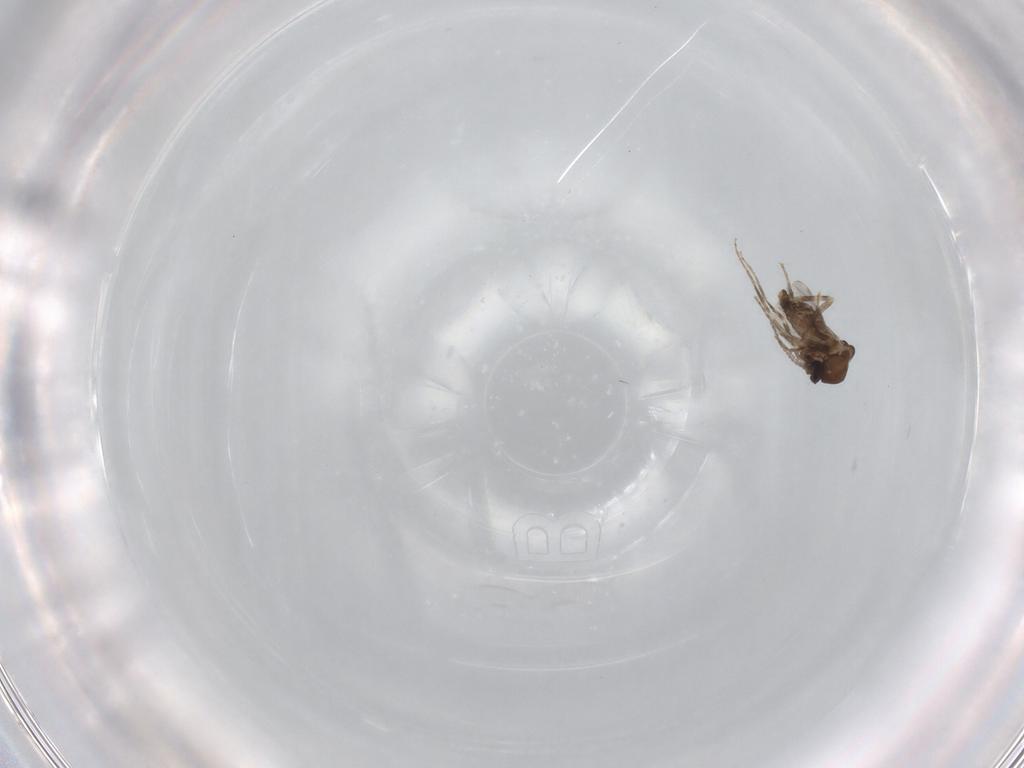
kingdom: Animalia
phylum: Arthropoda
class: Insecta
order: Diptera
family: Ceratopogonidae
